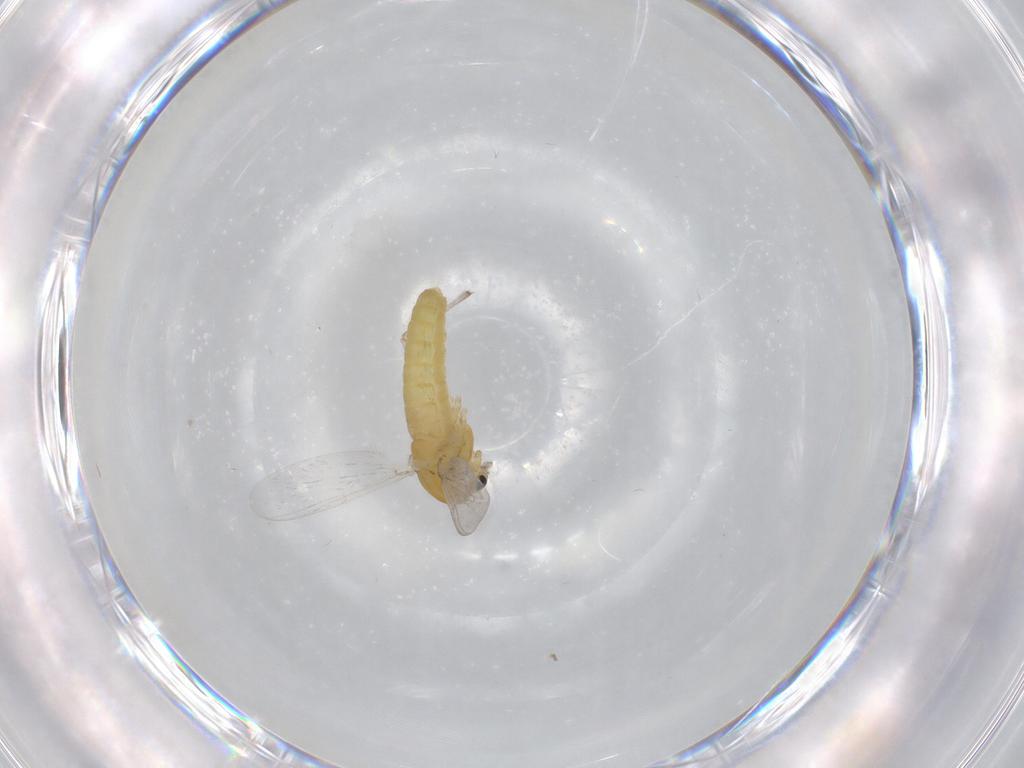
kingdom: Animalia
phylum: Arthropoda
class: Insecta
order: Diptera
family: Chironomidae
